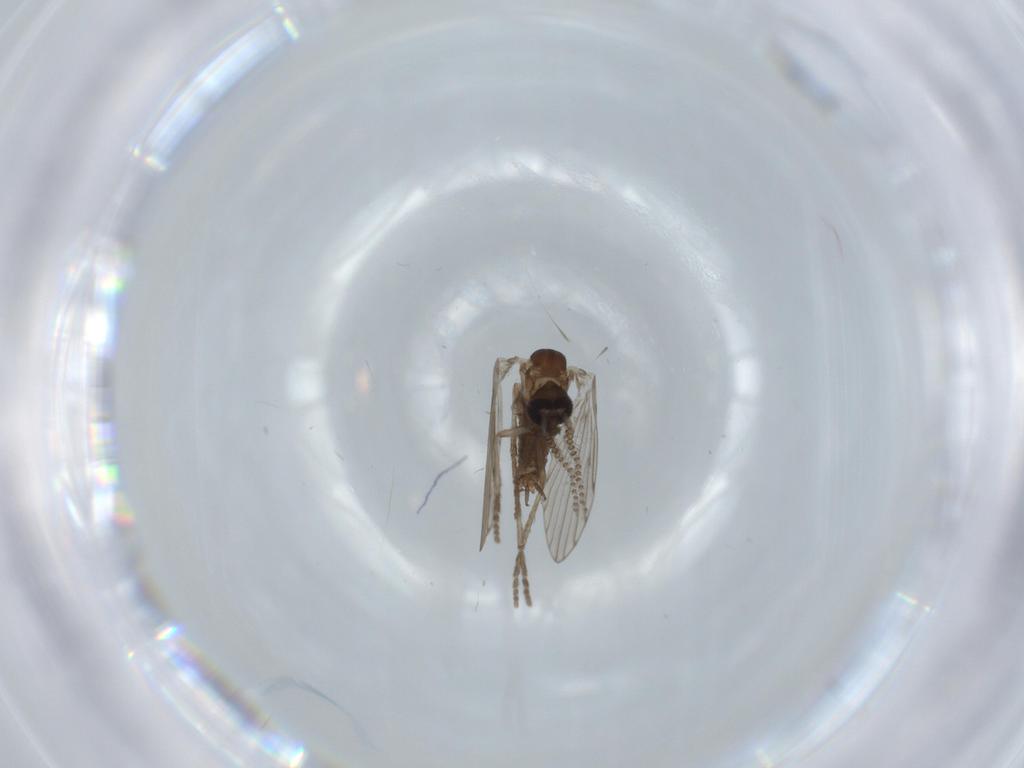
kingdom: Animalia
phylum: Arthropoda
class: Insecta
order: Diptera
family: Psychodidae
